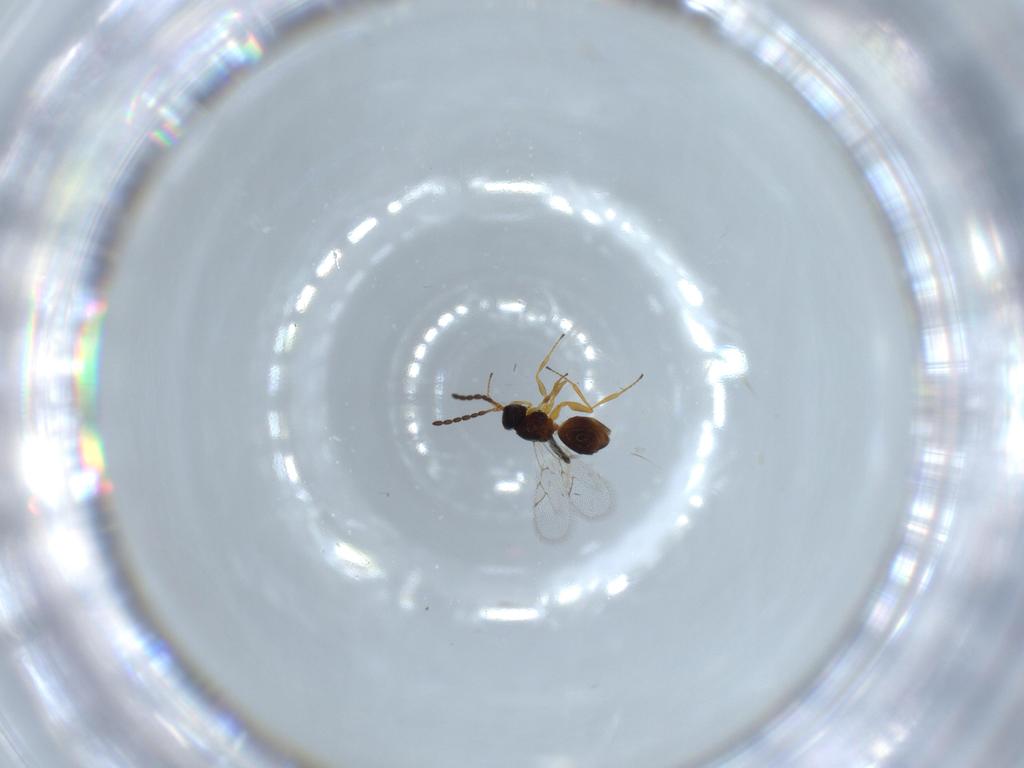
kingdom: Animalia
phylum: Arthropoda
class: Insecta
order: Hymenoptera
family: Figitidae
